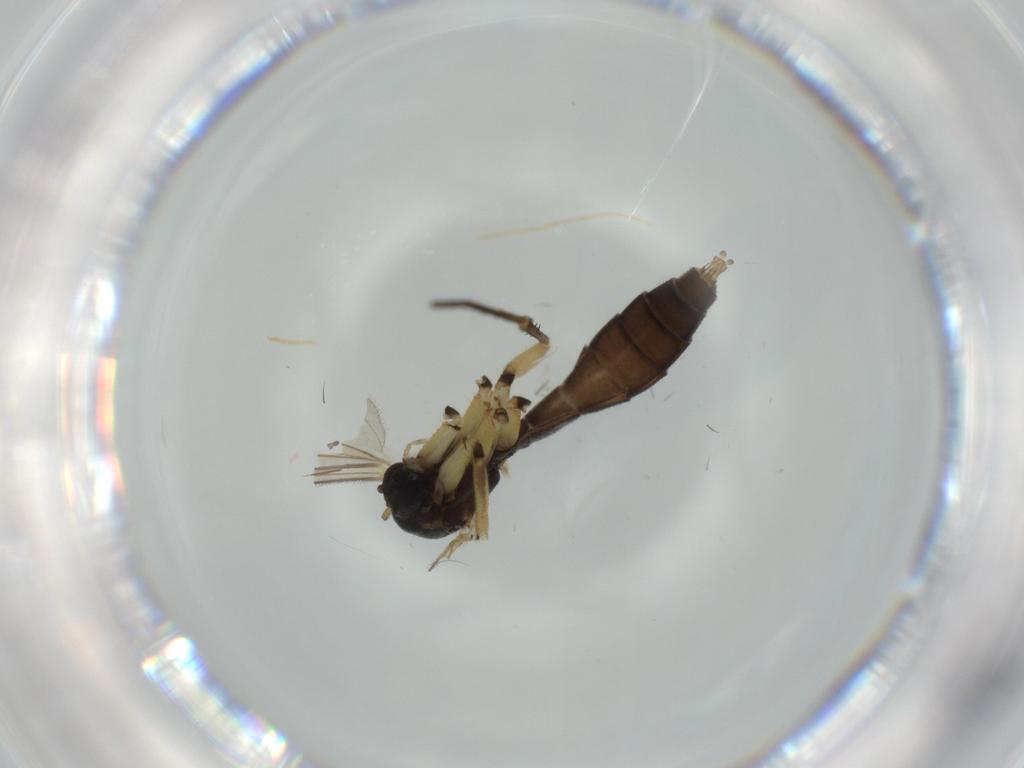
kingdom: Animalia
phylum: Arthropoda
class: Insecta
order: Diptera
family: Mycetophilidae
